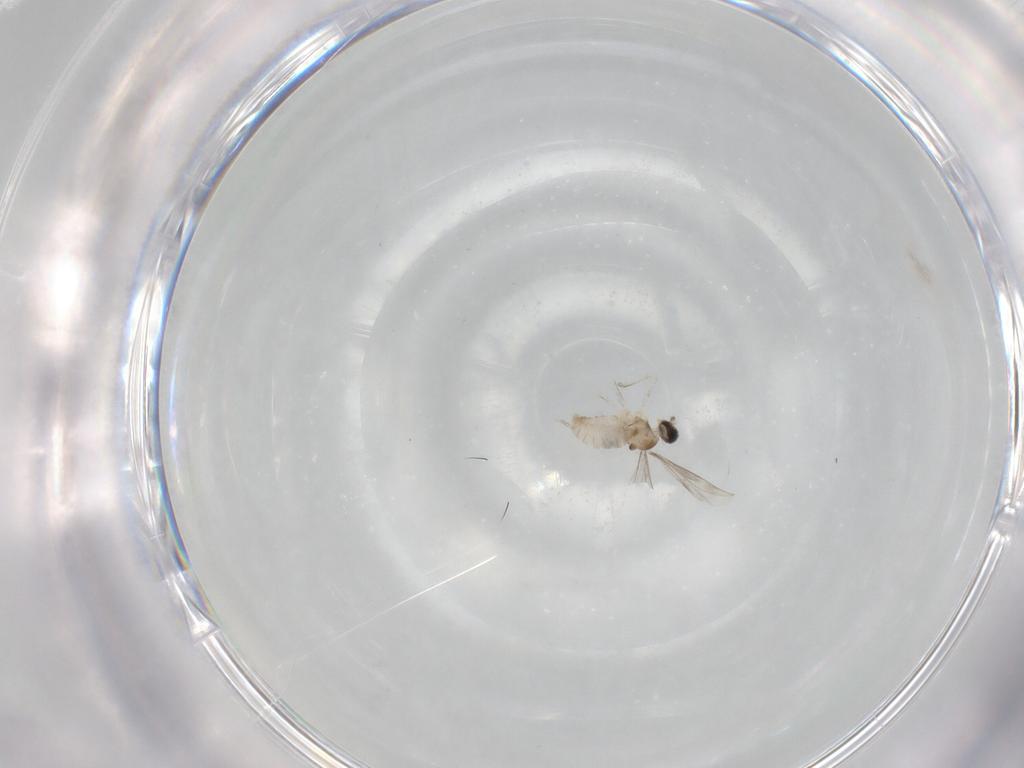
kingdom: Animalia
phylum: Arthropoda
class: Insecta
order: Diptera
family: Cecidomyiidae
